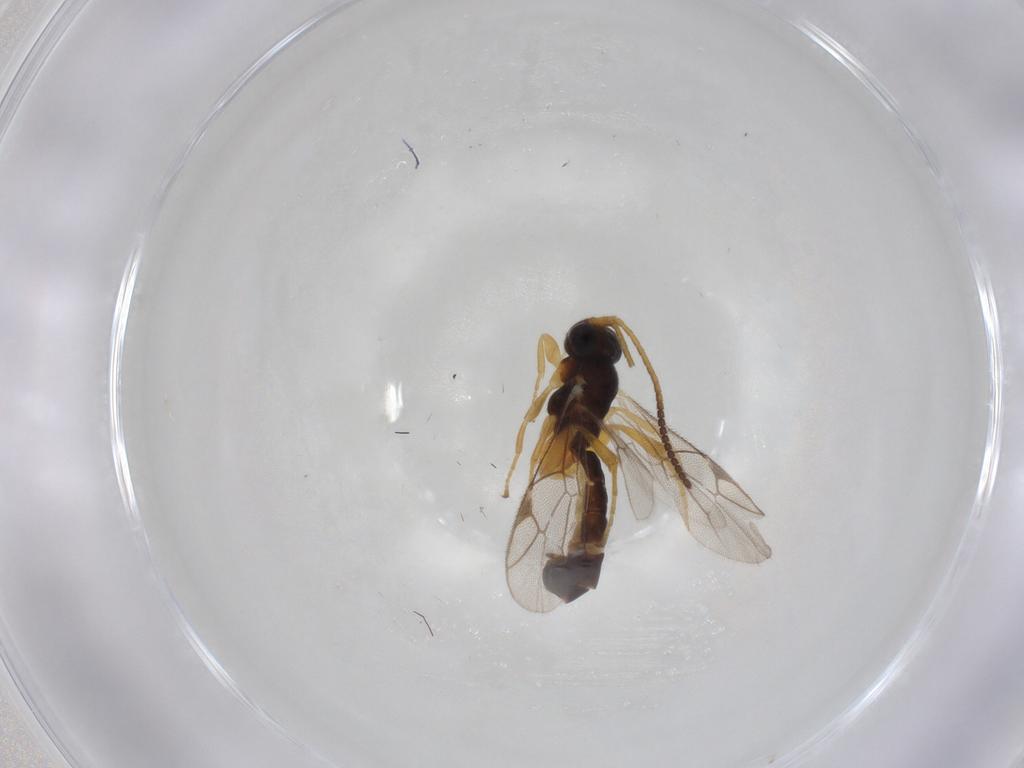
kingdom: Animalia
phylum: Arthropoda
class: Insecta
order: Hymenoptera
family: Ichneumonidae
